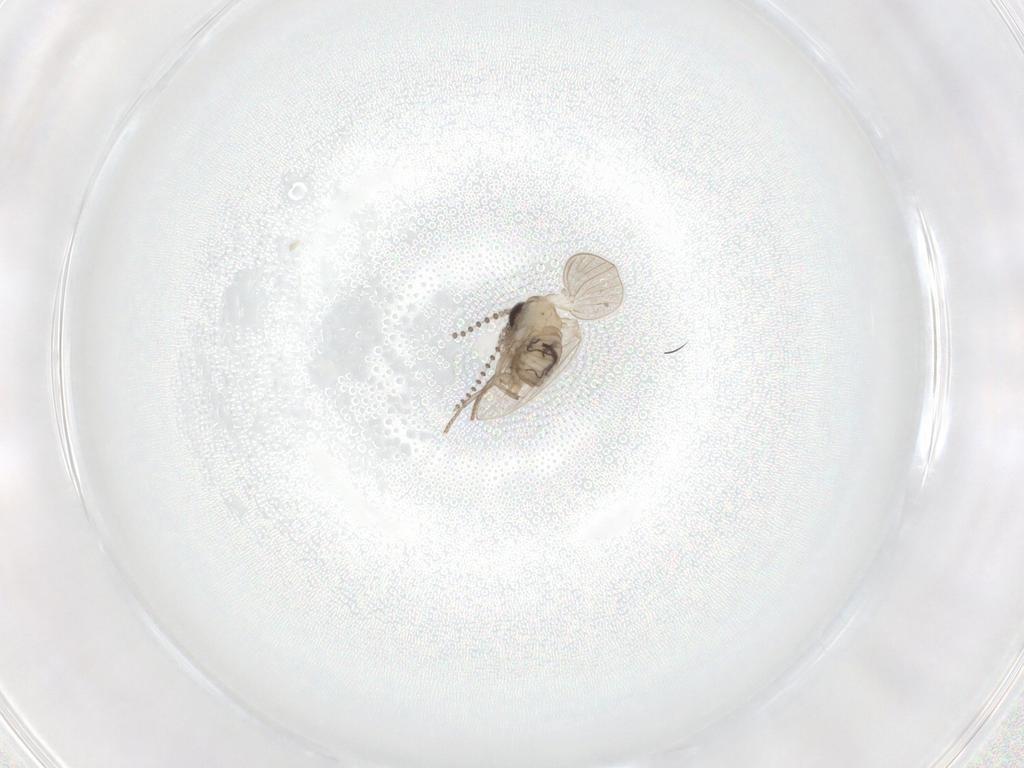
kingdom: Animalia
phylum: Arthropoda
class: Insecta
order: Diptera
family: Psychodidae
